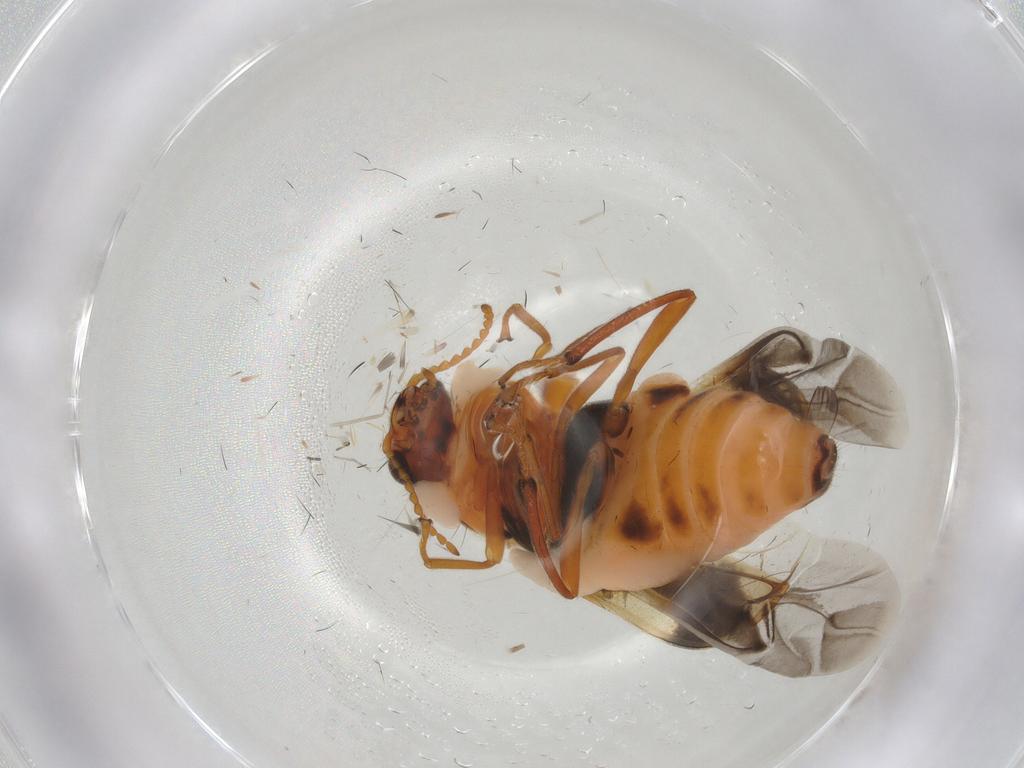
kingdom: Animalia
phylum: Arthropoda
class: Insecta
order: Coleoptera
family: Melyridae
